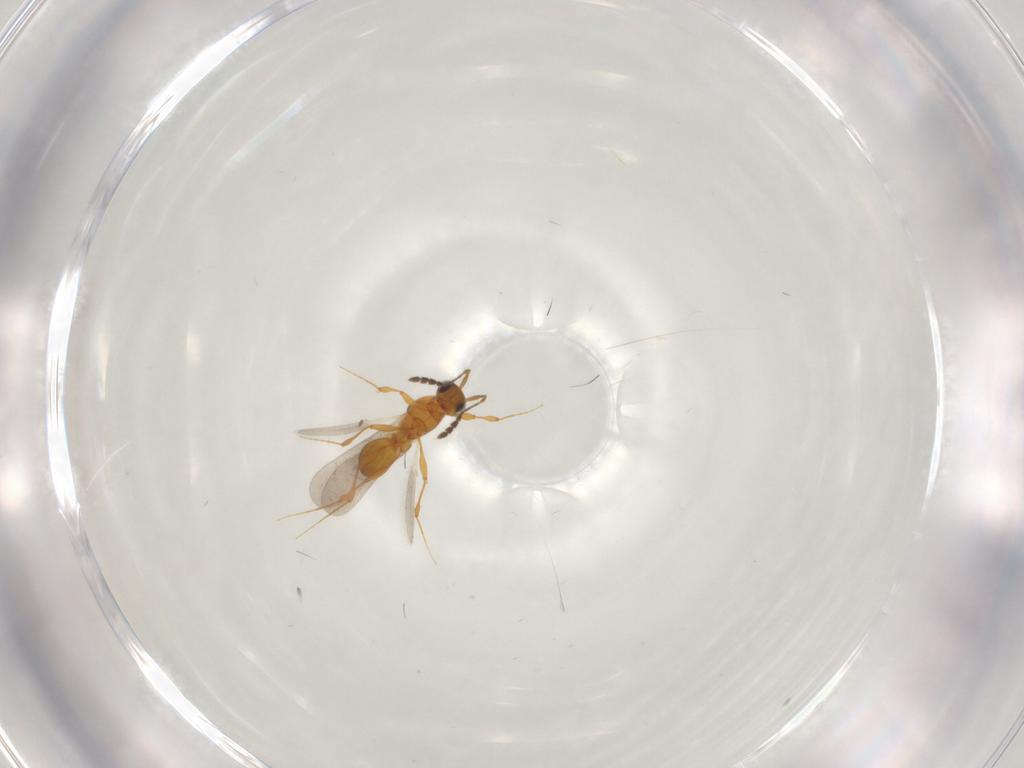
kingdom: Animalia
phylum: Arthropoda
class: Insecta
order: Hymenoptera
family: Platygastridae
